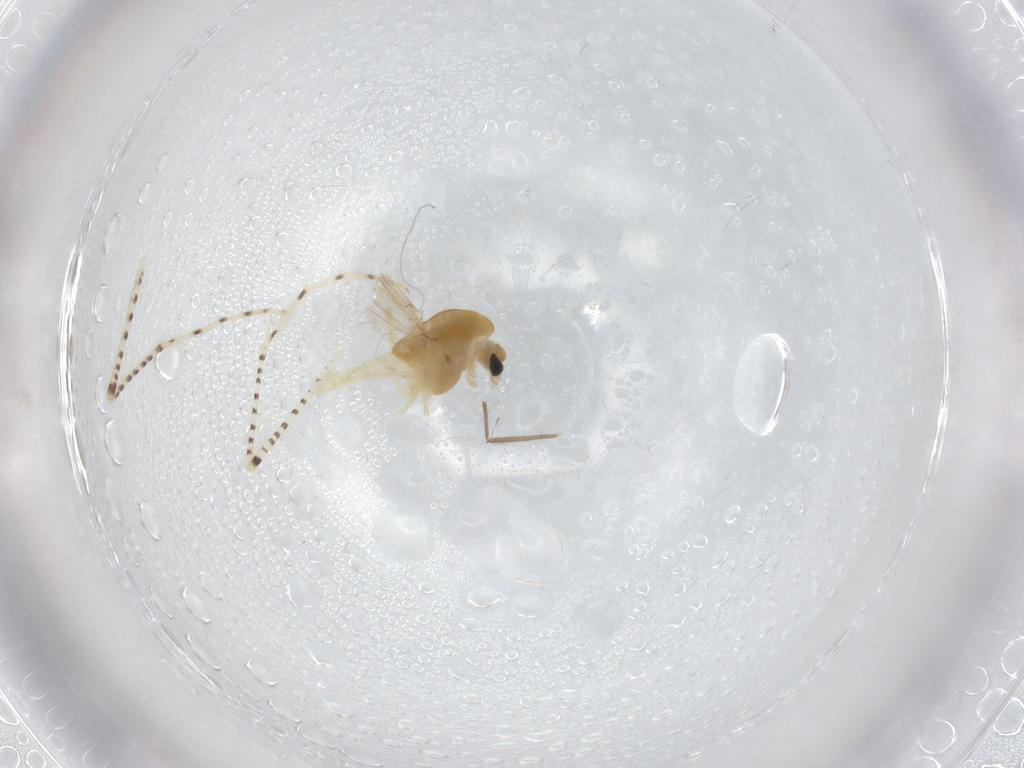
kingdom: Animalia
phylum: Arthropoda
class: Insecta
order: Diptera
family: Chironomidae
